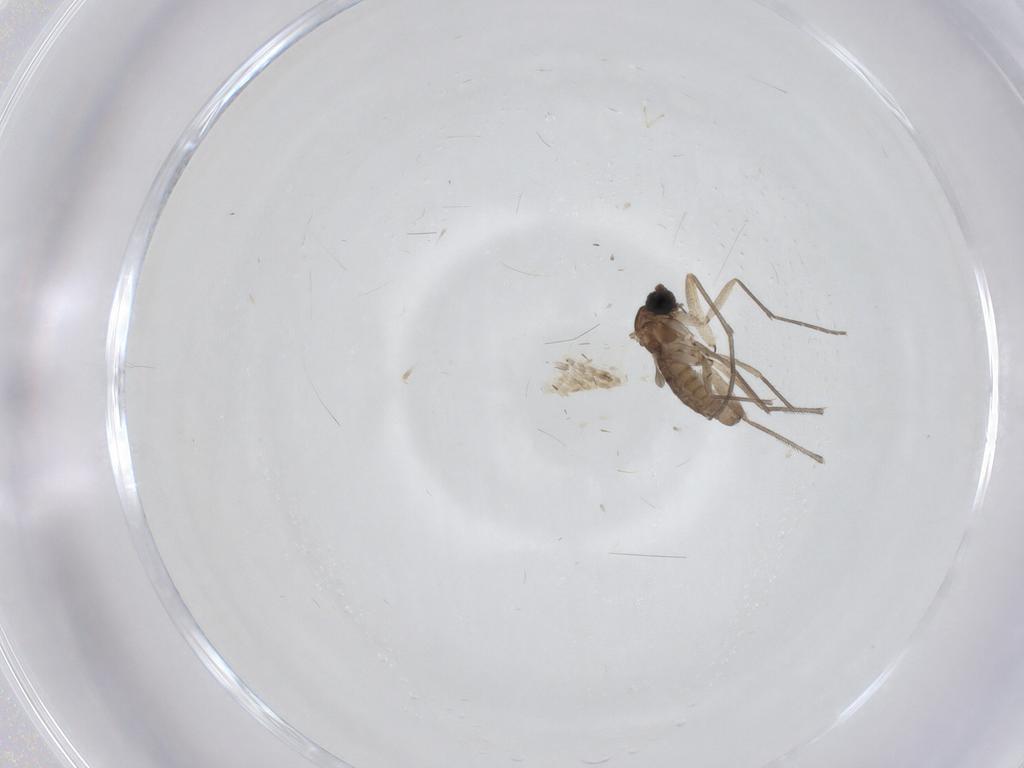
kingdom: Animalia
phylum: Arthropoda
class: Insecta
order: Diptera
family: Sciaridae
